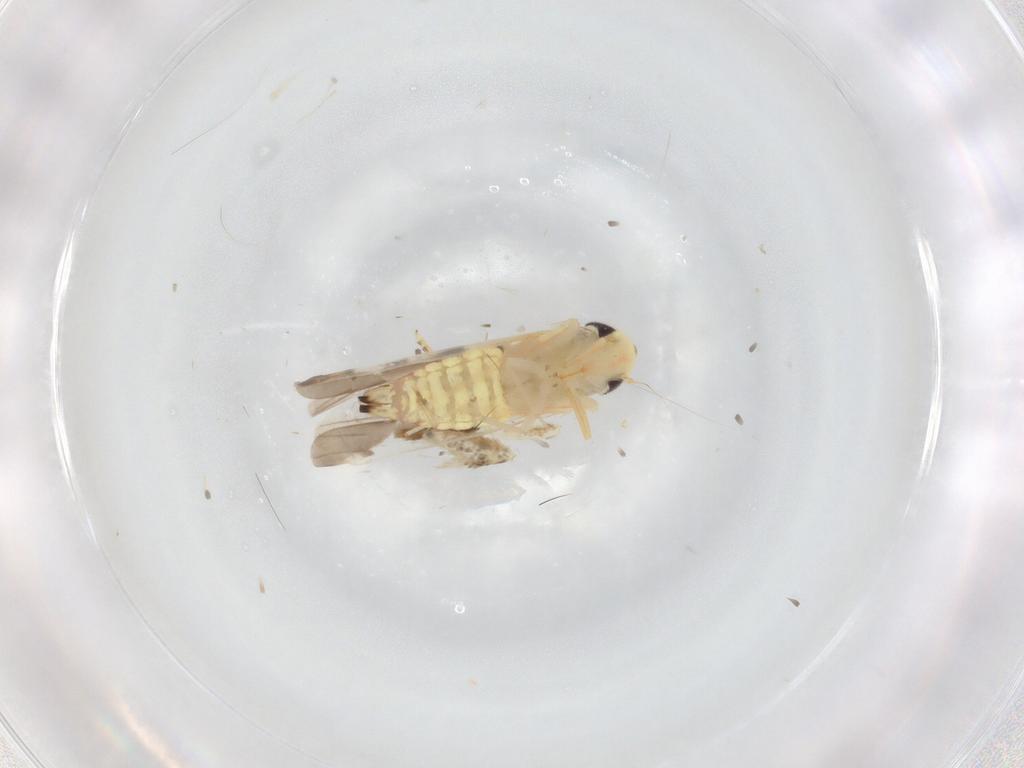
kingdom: Animalia
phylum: Arthropoda
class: Insecta
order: Hemiptera
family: Cicadellidae
